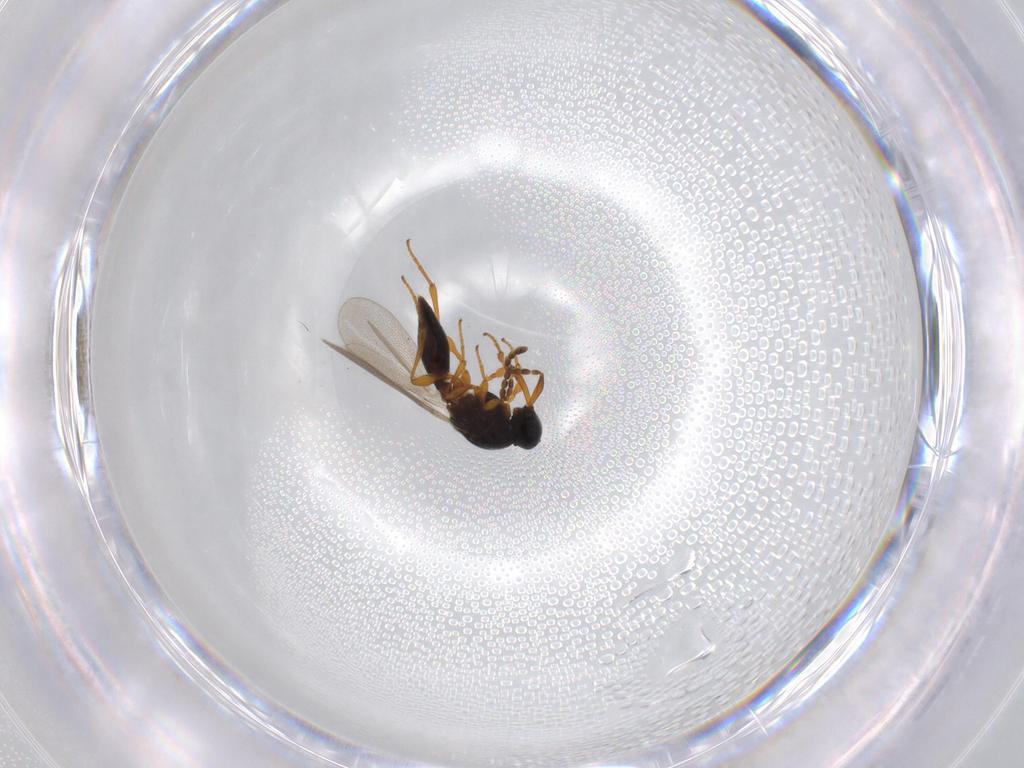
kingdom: Animalia
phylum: Arthropoda
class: Insecta
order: Hymenoptera
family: Platygastridae
